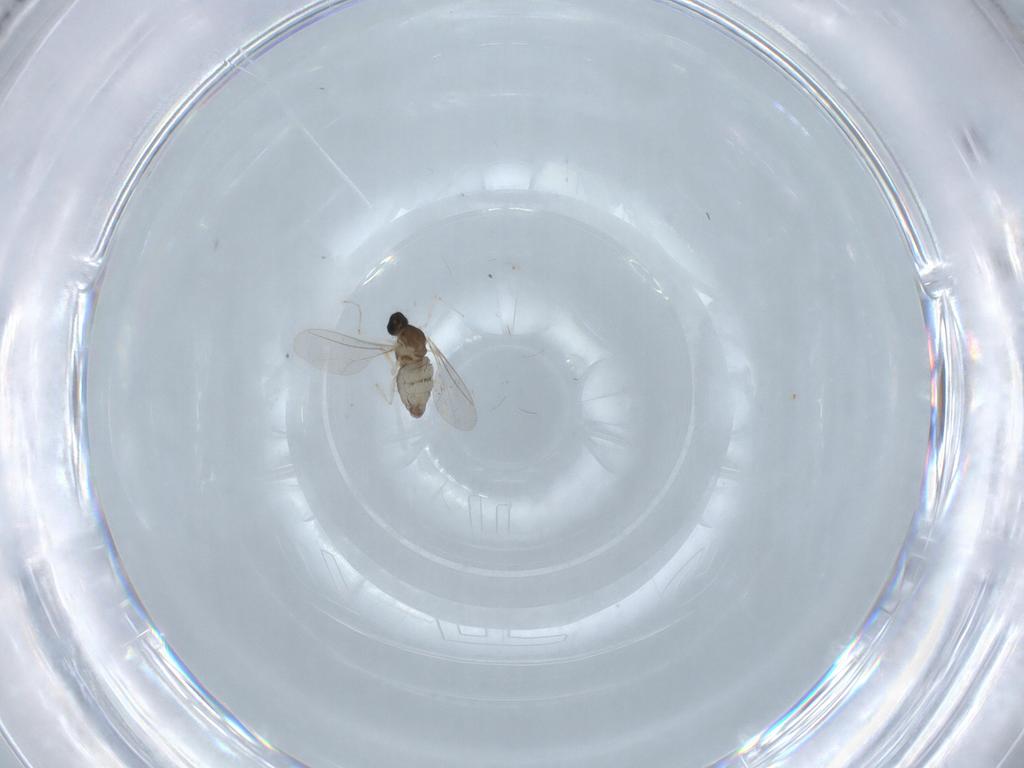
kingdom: Animalia
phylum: Arthropoda
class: Insecta
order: Diptera
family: Cecidomyiidae
